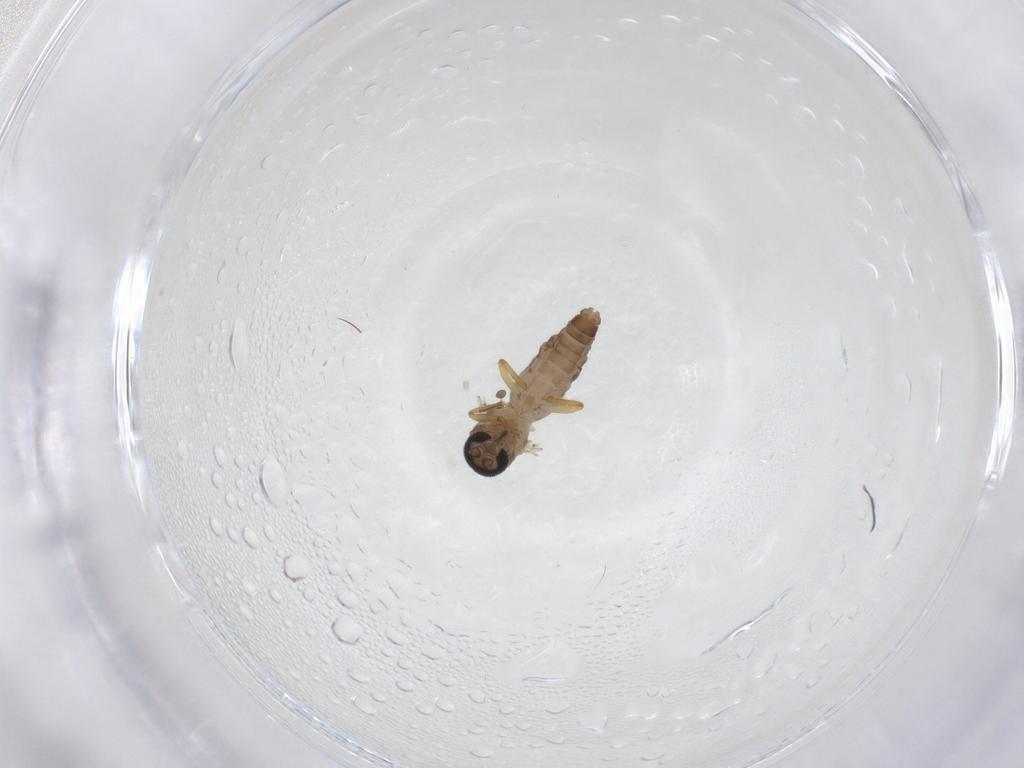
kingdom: Animalia
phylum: Arthropoda
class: Insecta
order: Diptera
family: Ceratopogonidae
